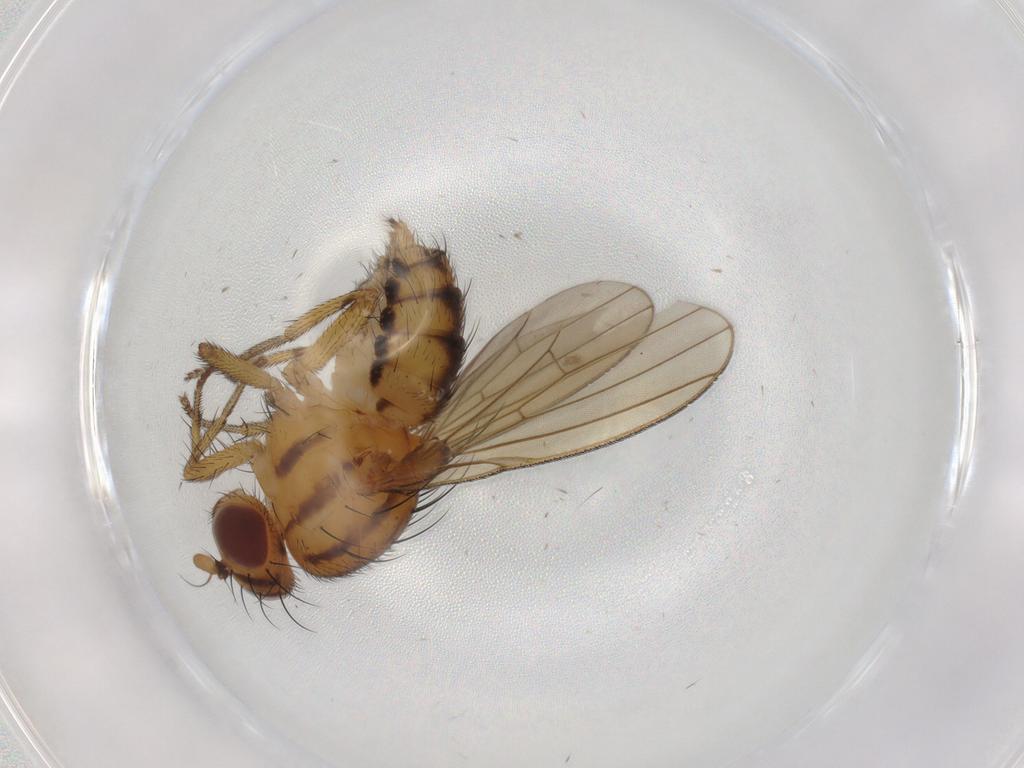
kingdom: Animalia
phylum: Arthropoda
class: Insecta
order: Diptera
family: Chironomidae
